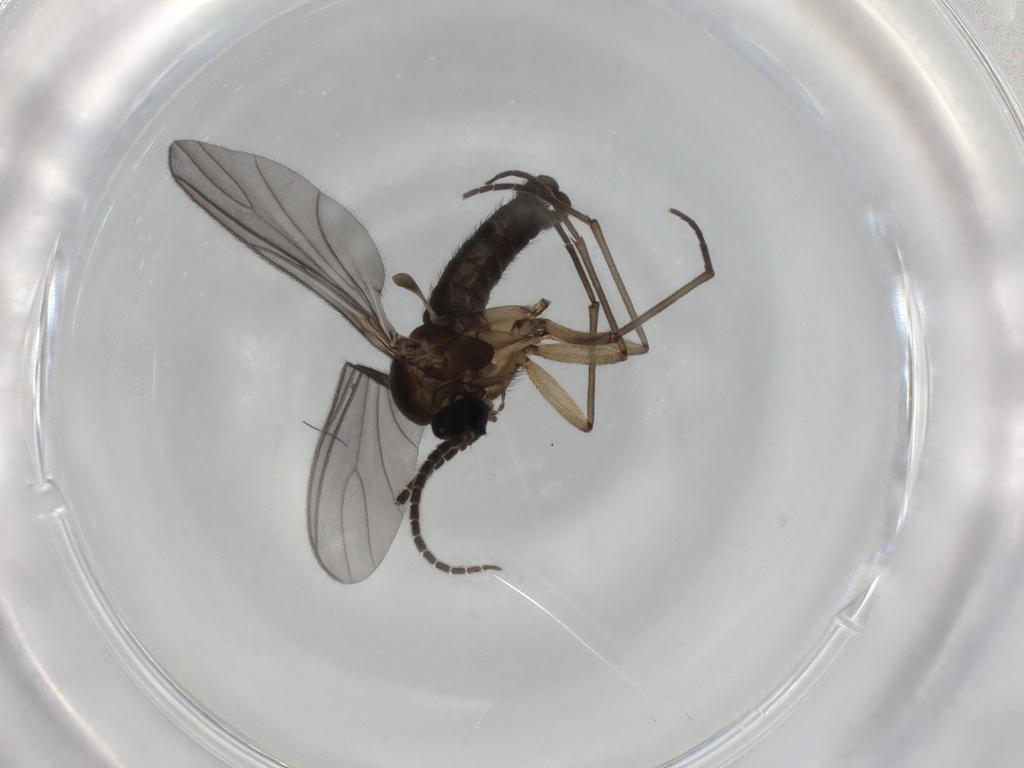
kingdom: Animalia
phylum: Arthropoda
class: Insecta
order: Diptera
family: Sciaridae
